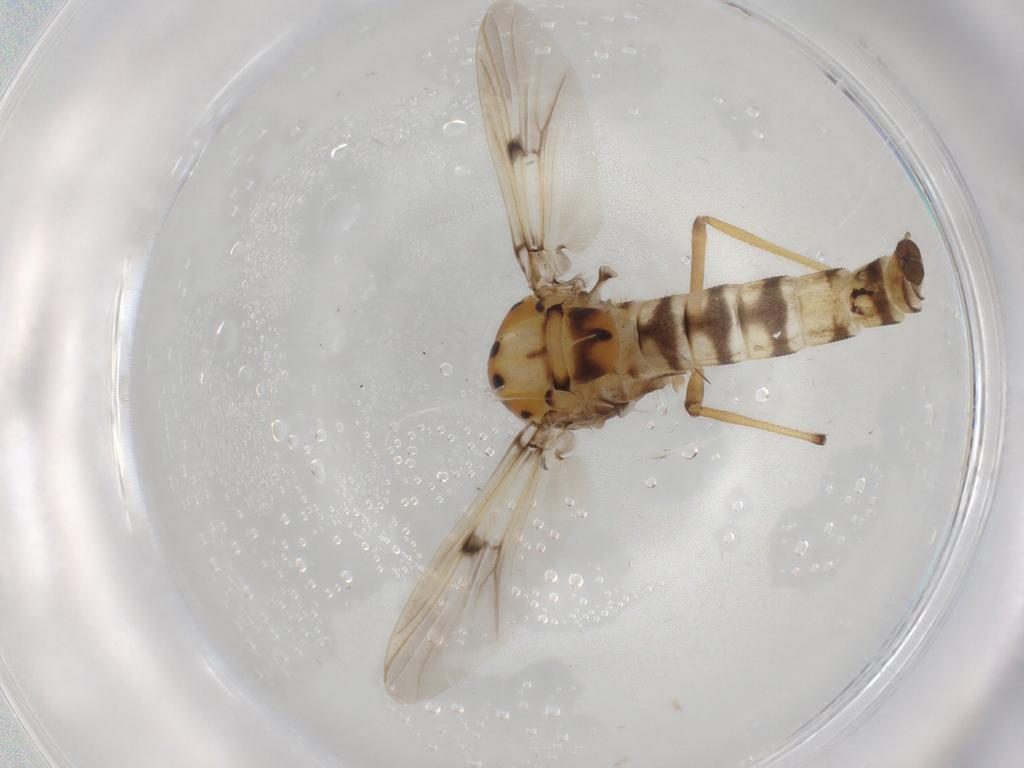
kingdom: Animalia
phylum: Arthropoda
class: Insecta
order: Diptera
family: Chironomidae
